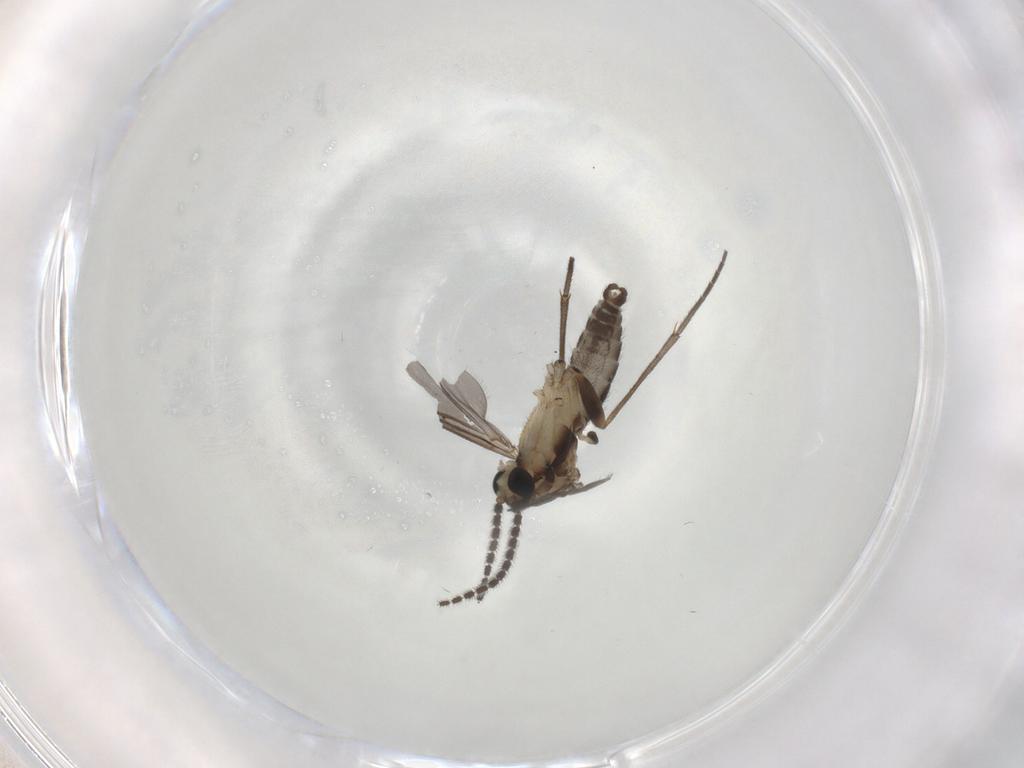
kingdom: Animalia
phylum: Arthropoda
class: Insecta
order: Diptera
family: Sciaridae
